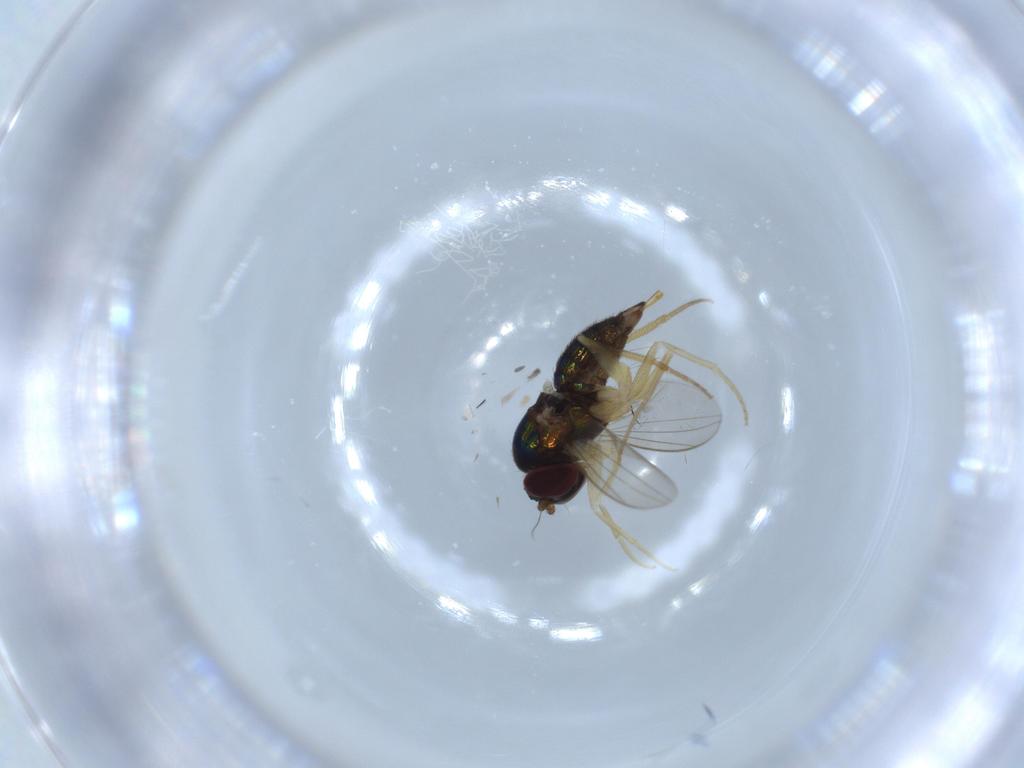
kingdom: Animalia
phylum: Arthropoda
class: Insecta
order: Diptera
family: Dolichopodidae
